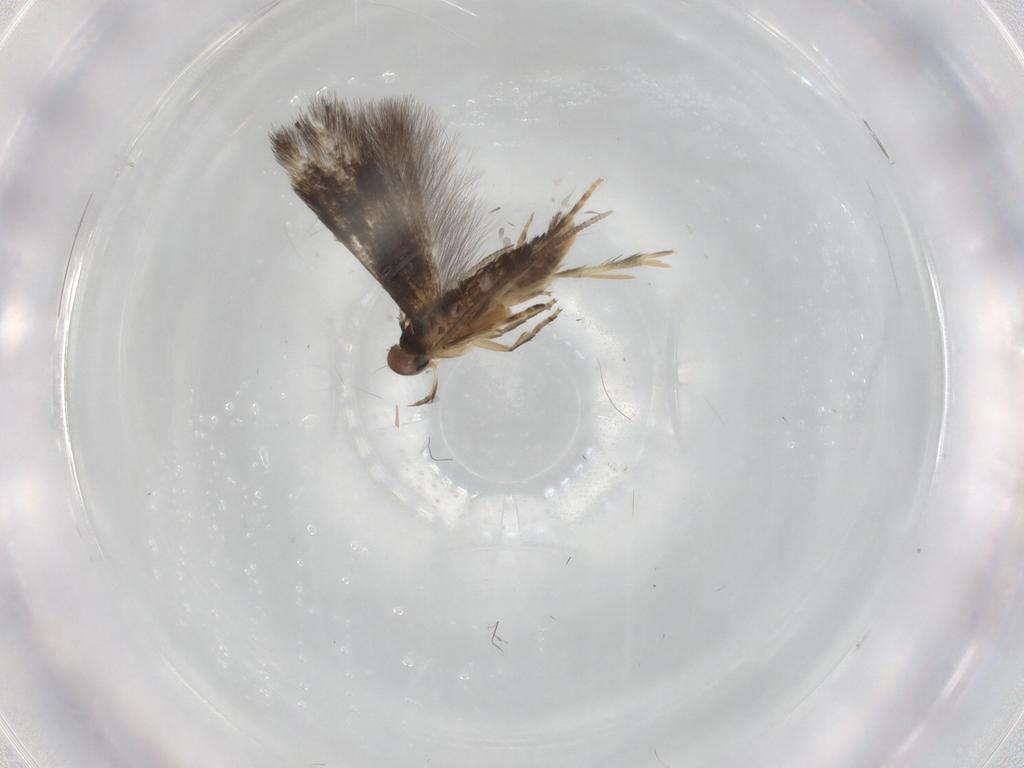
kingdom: Animalia
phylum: Arthropoda
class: Insecta
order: Lepidoptera
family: Elachistidae
